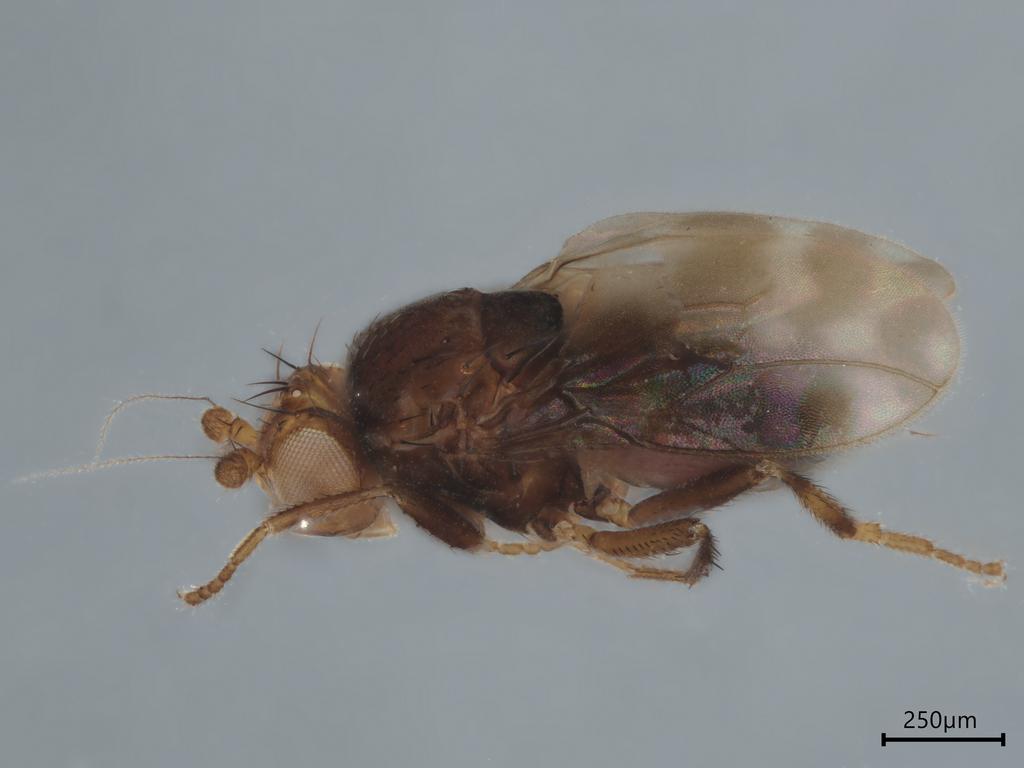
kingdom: Animalia
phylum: Arthropoda
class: Insecta
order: Diptera
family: Sphaeroceridae
